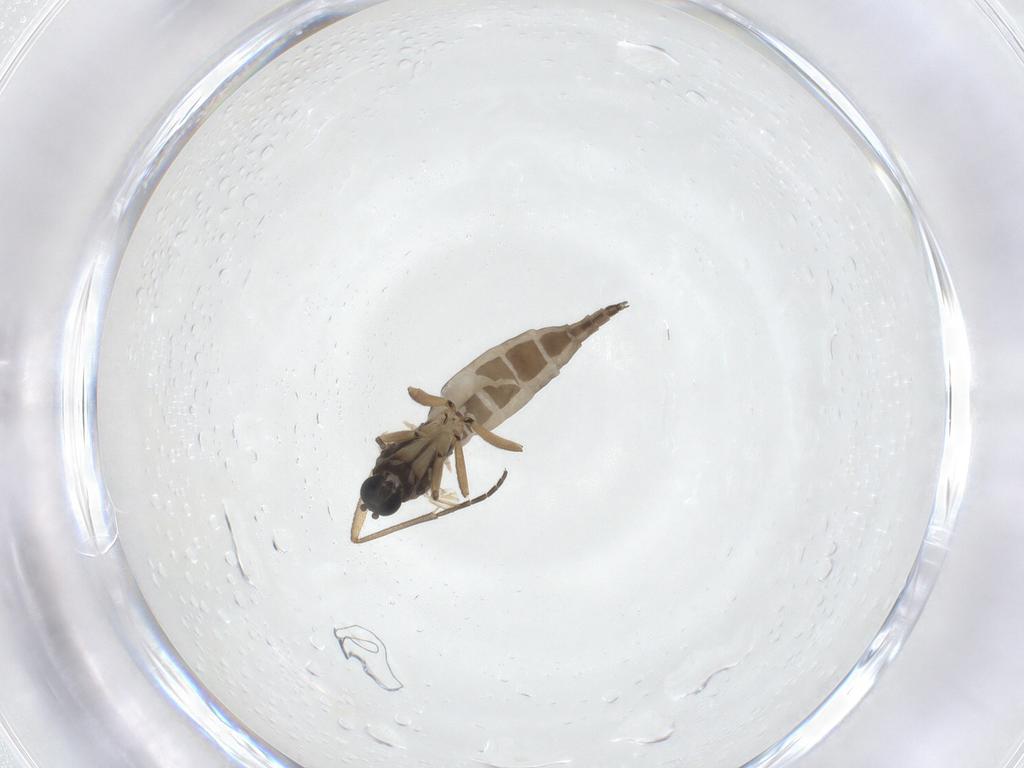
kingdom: Animalia
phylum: Arthropoda
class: Insecta
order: Diptera
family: Sciaridae
